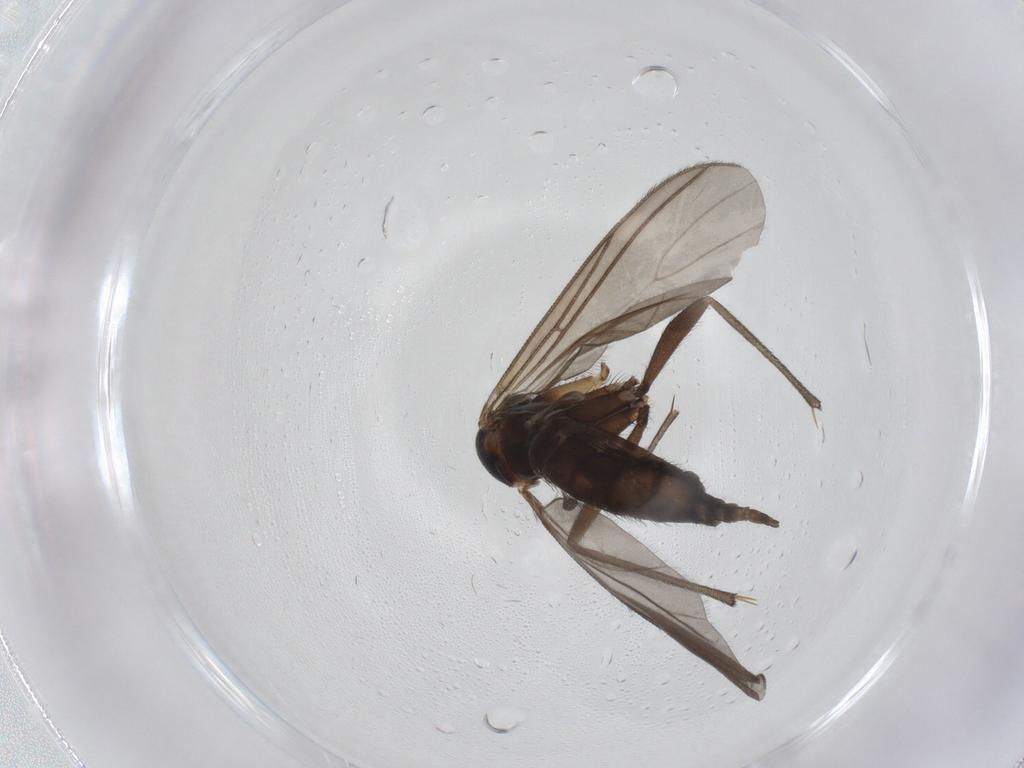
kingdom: Animalia
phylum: Arthropoda
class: Insecta
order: Diptera
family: Sciaridae
